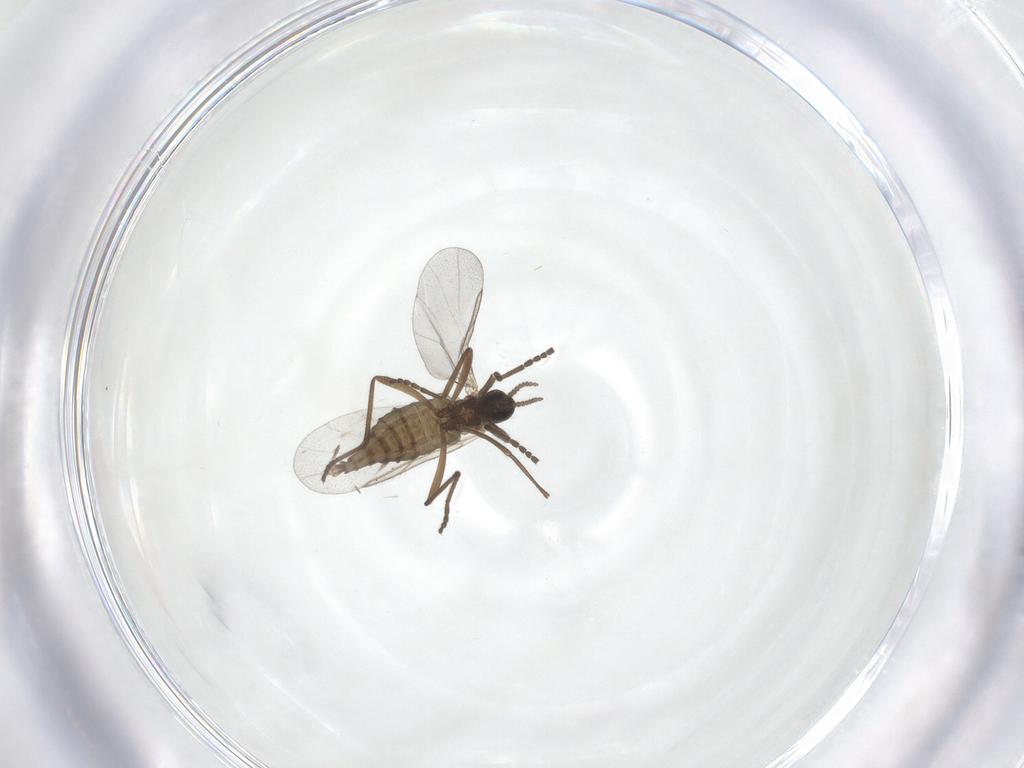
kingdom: Animalia
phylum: Arthropoda
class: Insecta
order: Diptera
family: Cecidomyiidae
